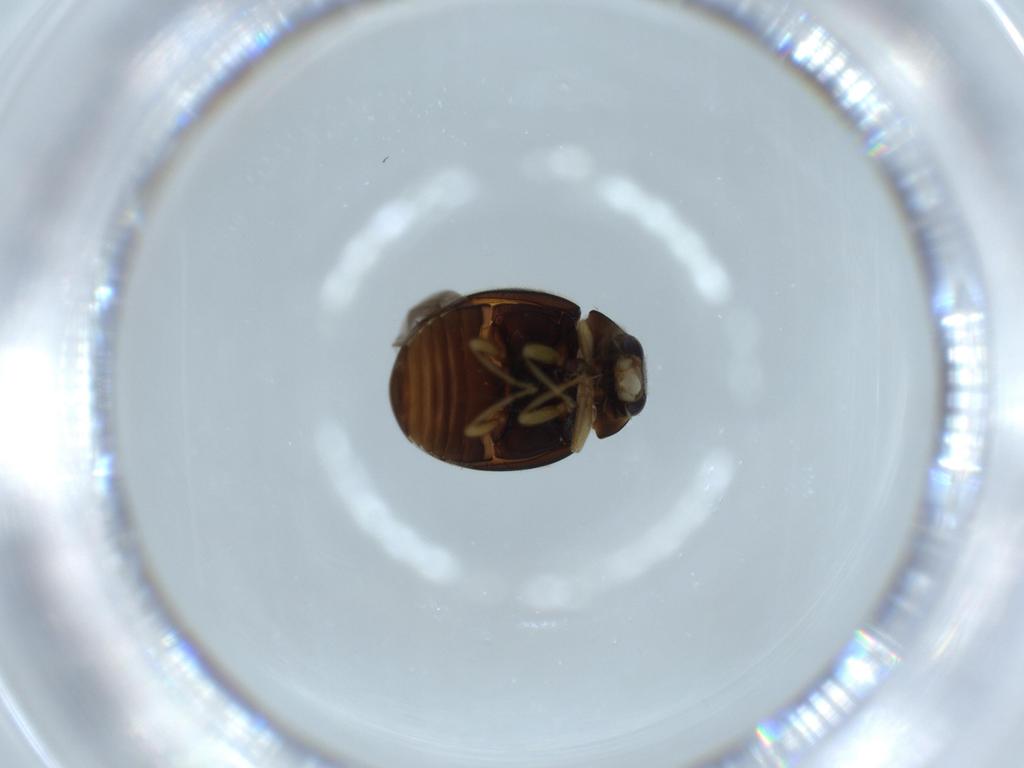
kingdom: Animalia
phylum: Arthropoda
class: Insecta
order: Coleoptera
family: Coccinellidae
